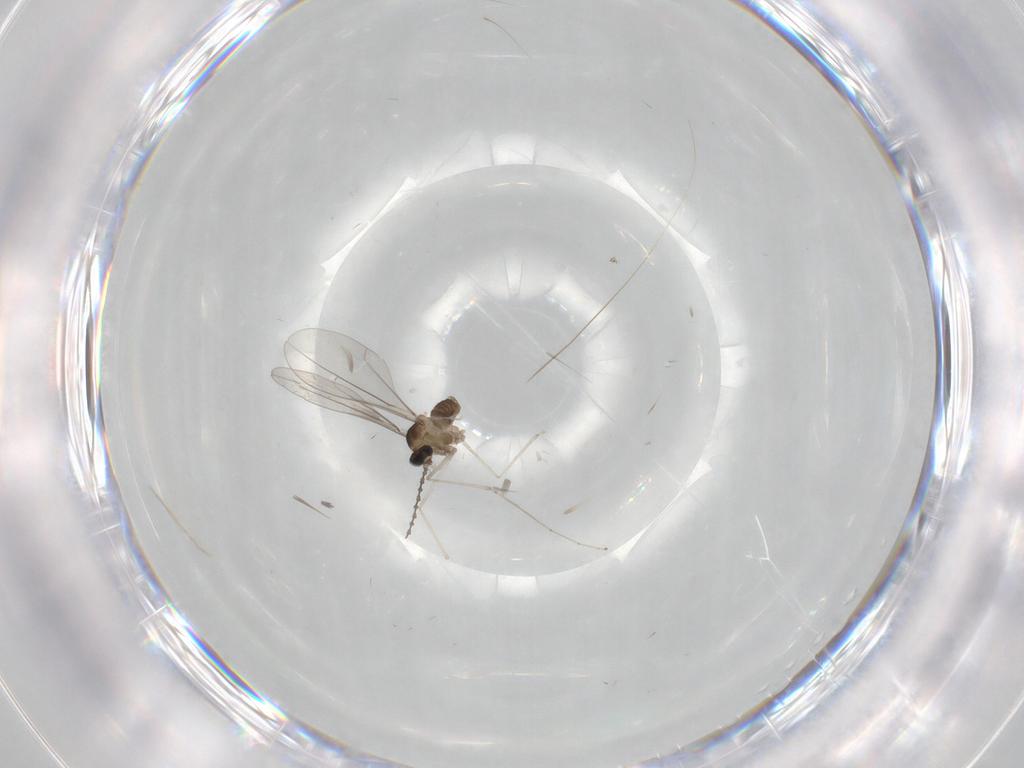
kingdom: Animalia
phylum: Arthropoda
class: Insecta
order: Diptera
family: Cecidomyiidae
